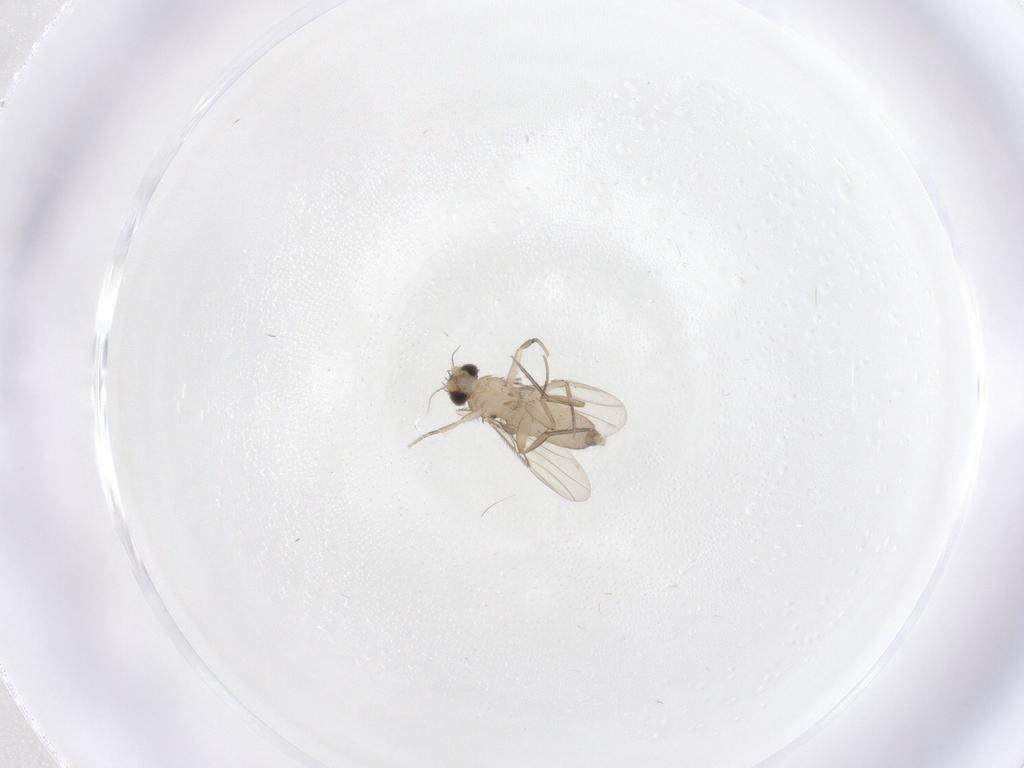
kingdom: Animalia
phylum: Arthropoda
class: Insecta
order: Diptera
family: Phoridae
